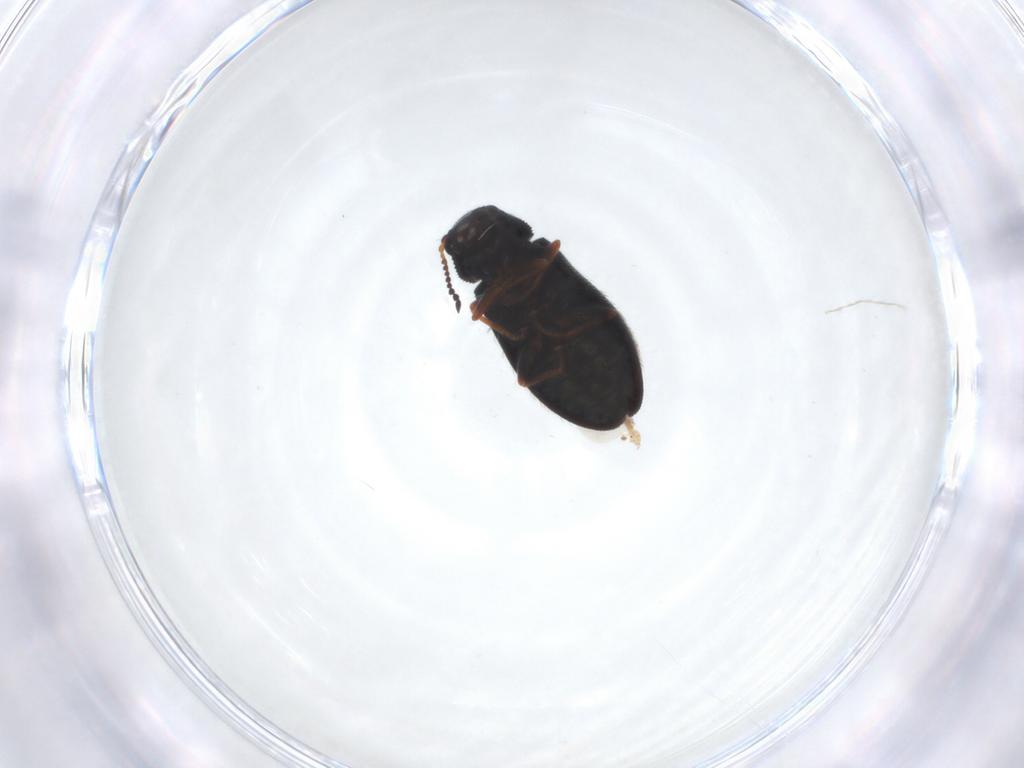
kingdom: Animalia
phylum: Arthropoda
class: Insecta
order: Coleoptera
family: Melyridae
